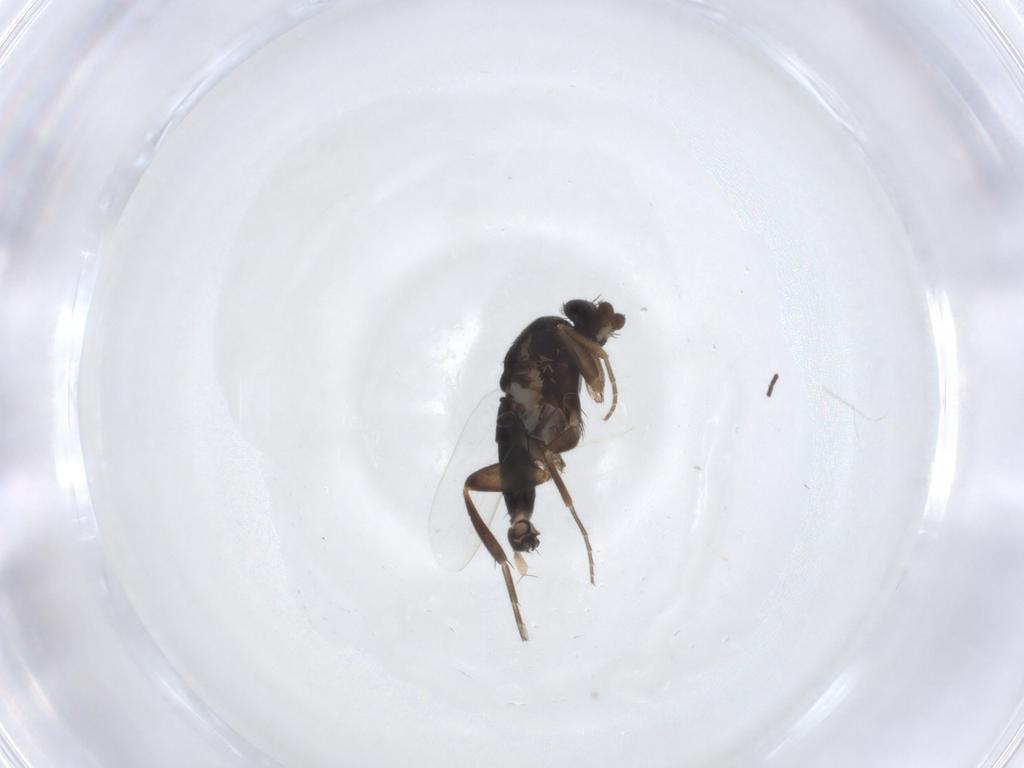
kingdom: Animalia
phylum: Arthropoda
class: Insecta
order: Diptera
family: Phoridae
